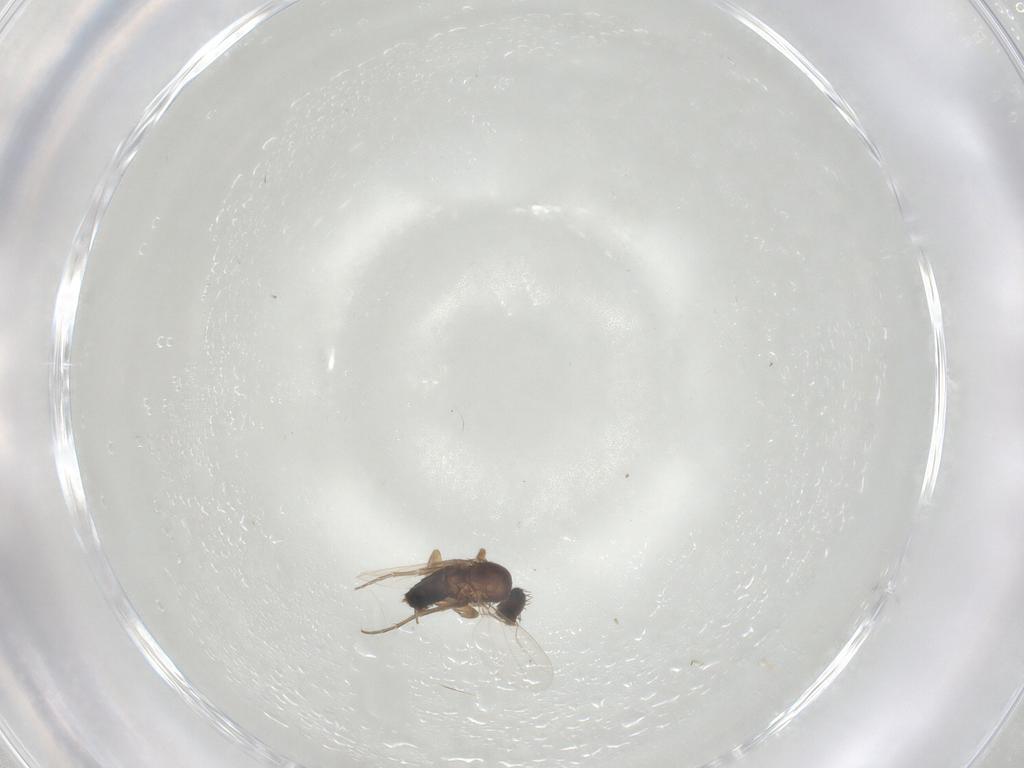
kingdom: Animalia
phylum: Arthropoda
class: Insecta
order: Diptera
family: Phoridae
